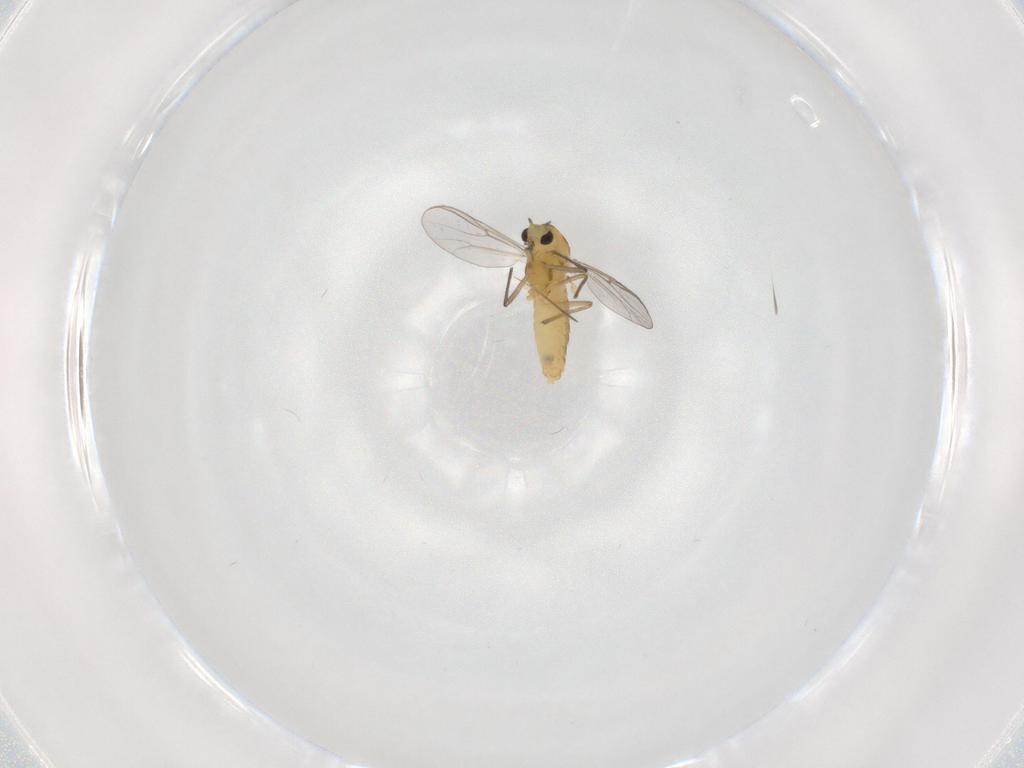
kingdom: Animalia
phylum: Arthropoda
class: Insecta
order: Diptera
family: Chironomidae
